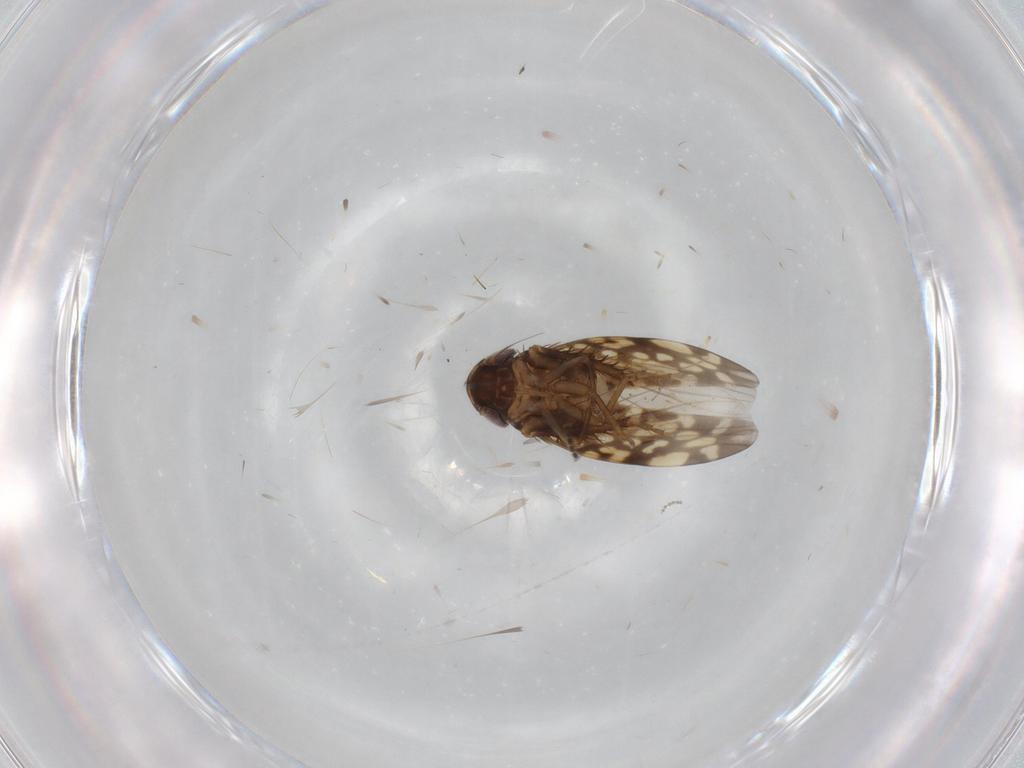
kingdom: Animalia
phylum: Arthropoda
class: Insecta
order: Hemiptera
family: Cicadellidae
